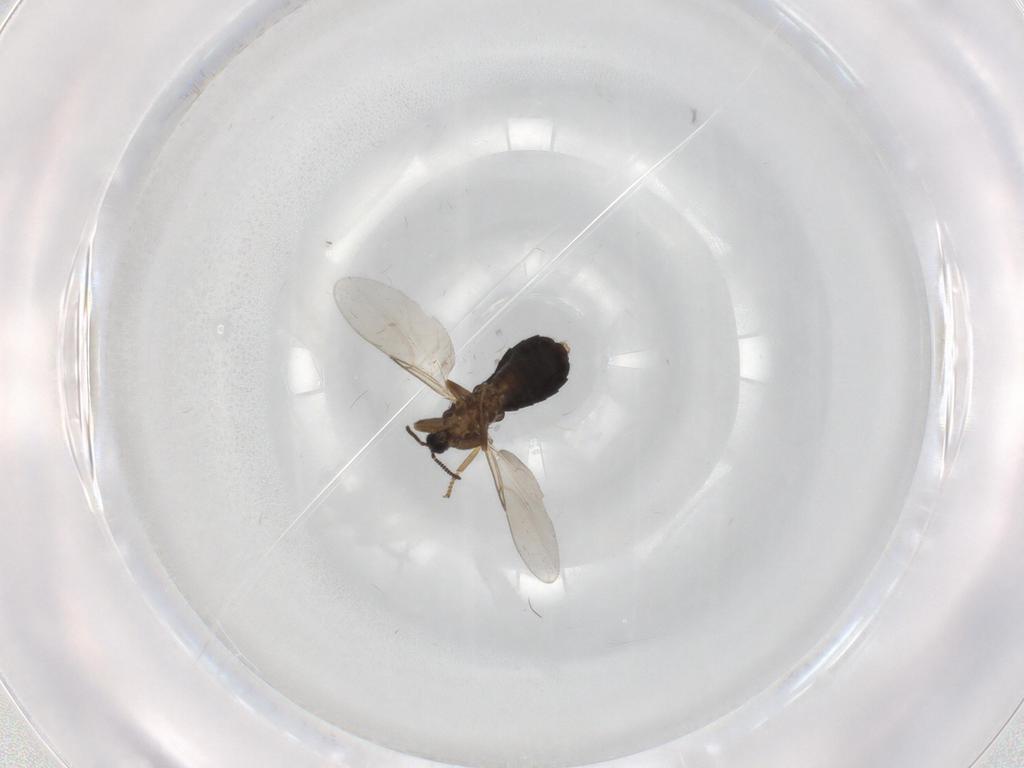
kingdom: Animalia
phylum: Arthropoda
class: Insecta
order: Diptera
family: Scatopsidae
